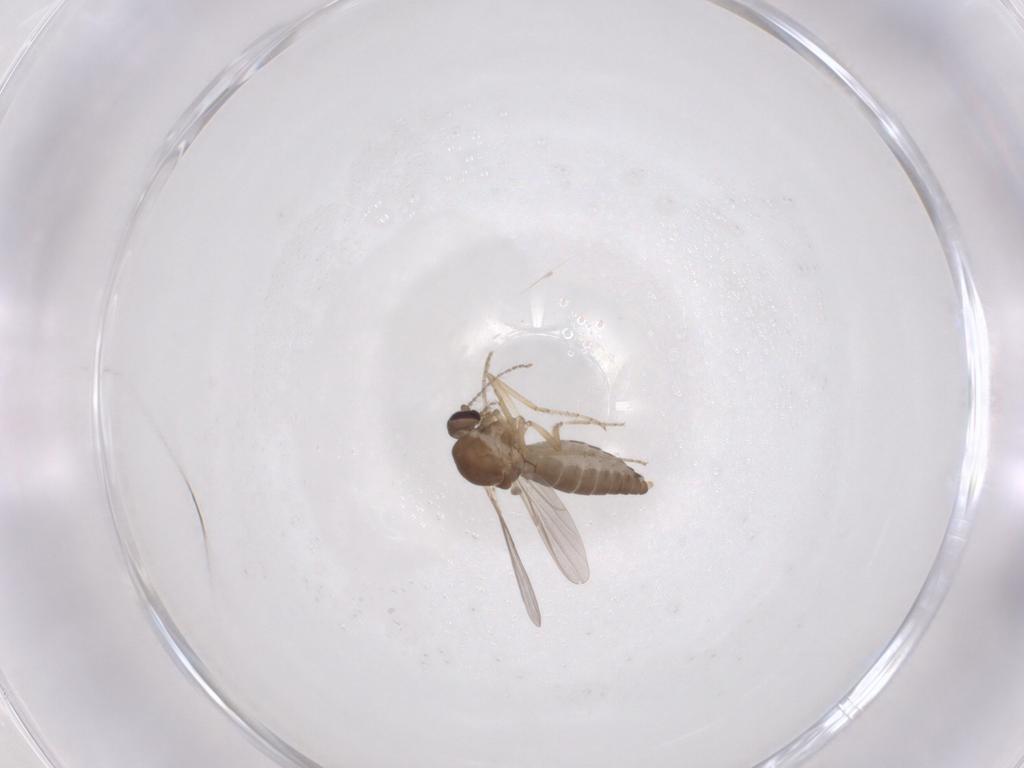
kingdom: Animalia
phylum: Arthropoda
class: Insecta
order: Diptera
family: Ceratopogonidae
